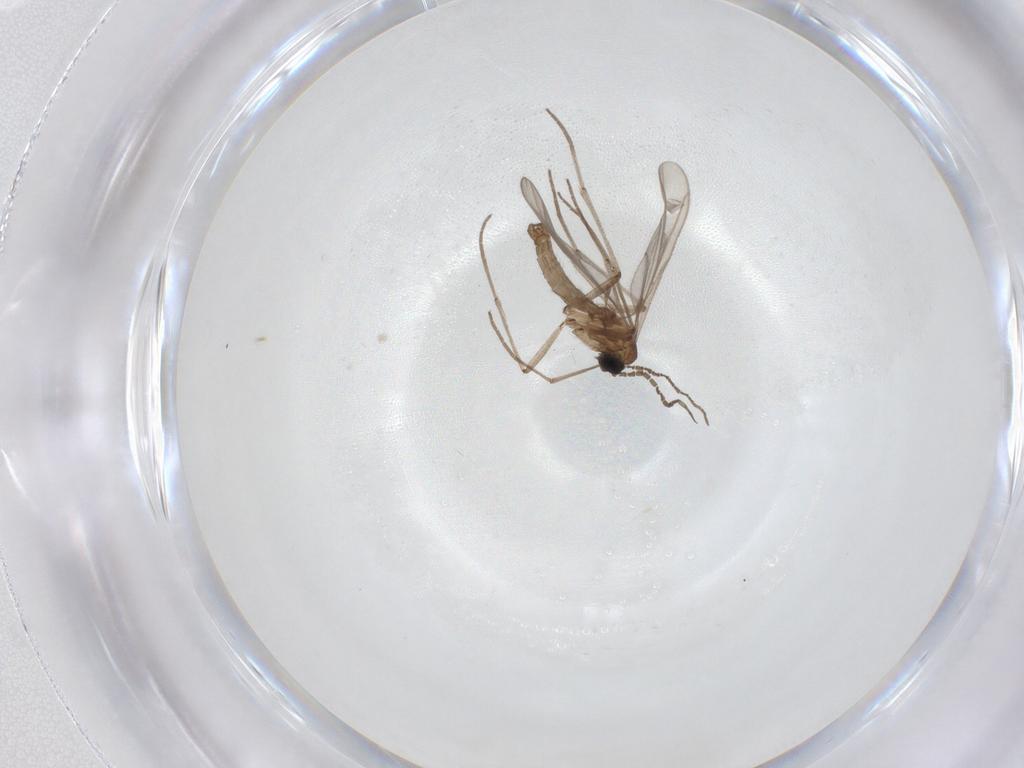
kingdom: Animalia
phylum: Arthropoda
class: Insecta
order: Diptera
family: Sciaridae
